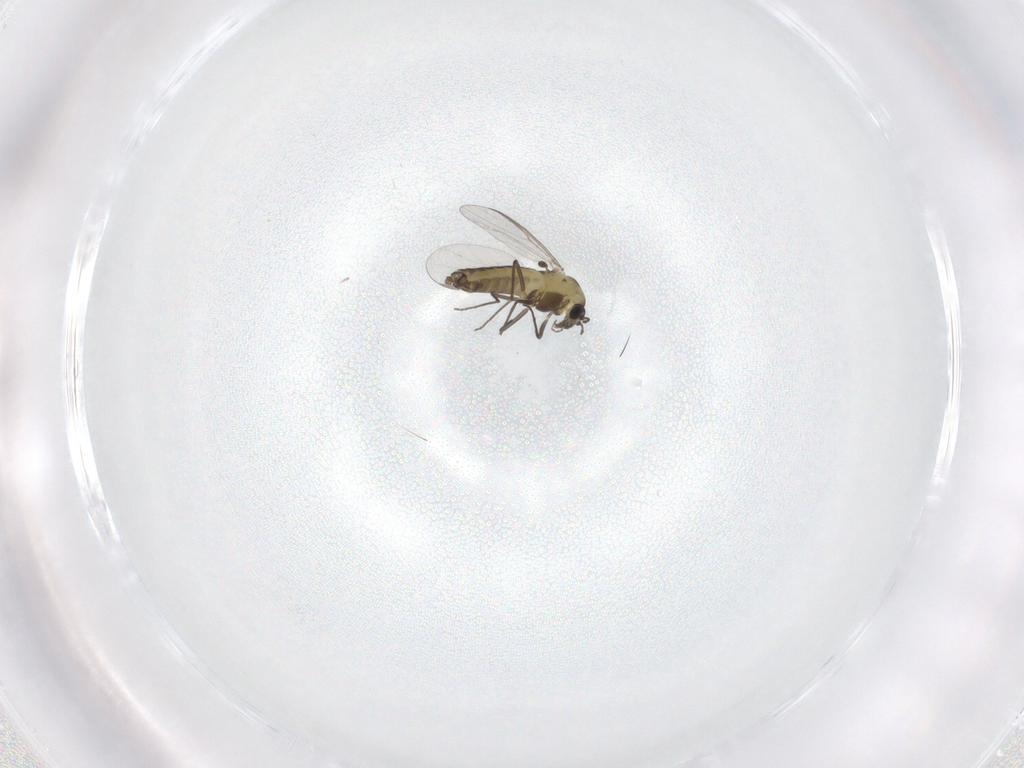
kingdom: Animalia
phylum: Arthropoda
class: Insecta
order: Diptera
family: Chironomidae
